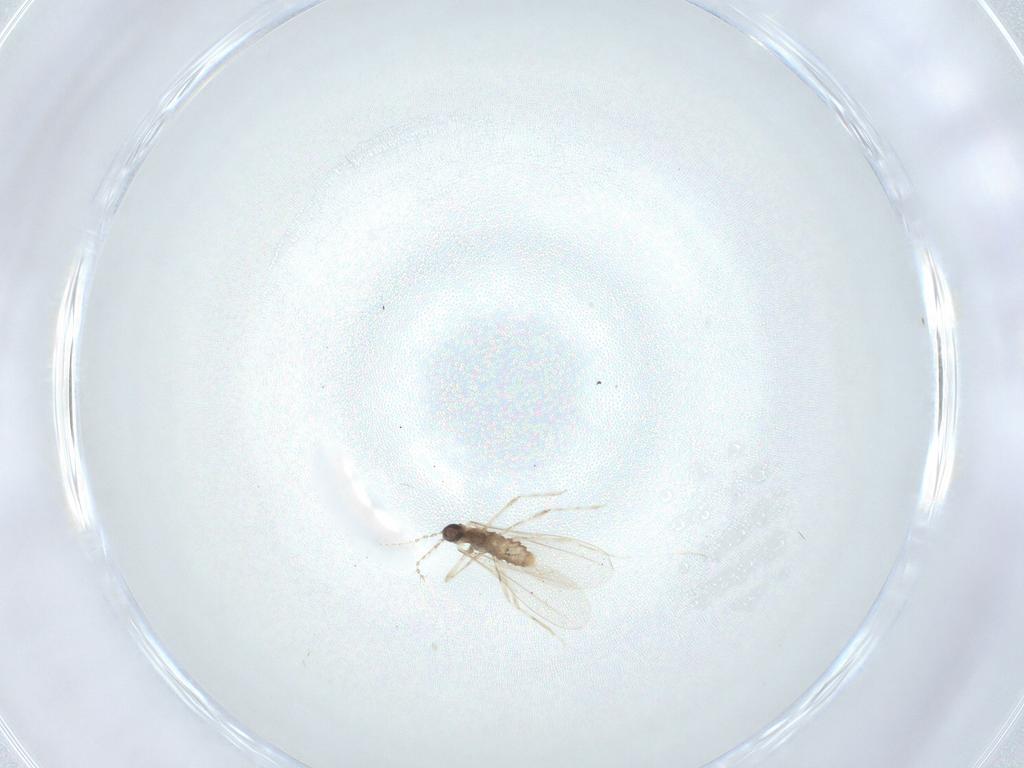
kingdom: Animalia
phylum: Arthropoda
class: Insecta
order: Diptera
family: Cecidomyiidae
